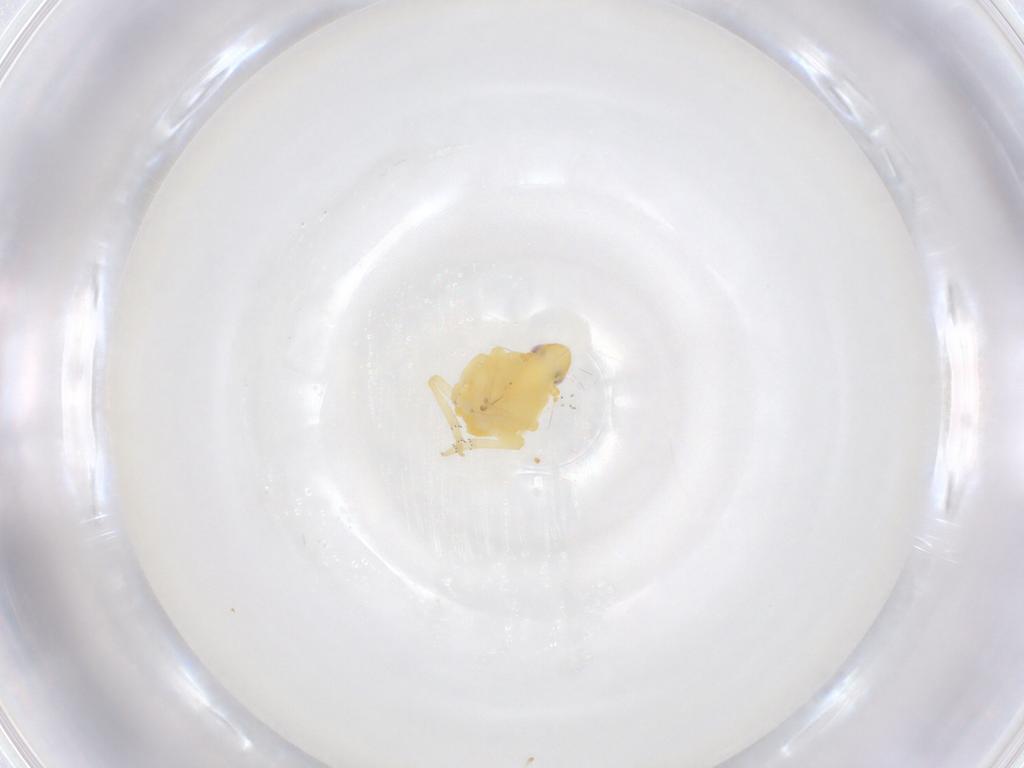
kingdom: Animalia
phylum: Arthropoda
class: Insecta
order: Hemiptera
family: Tropiduchidae
